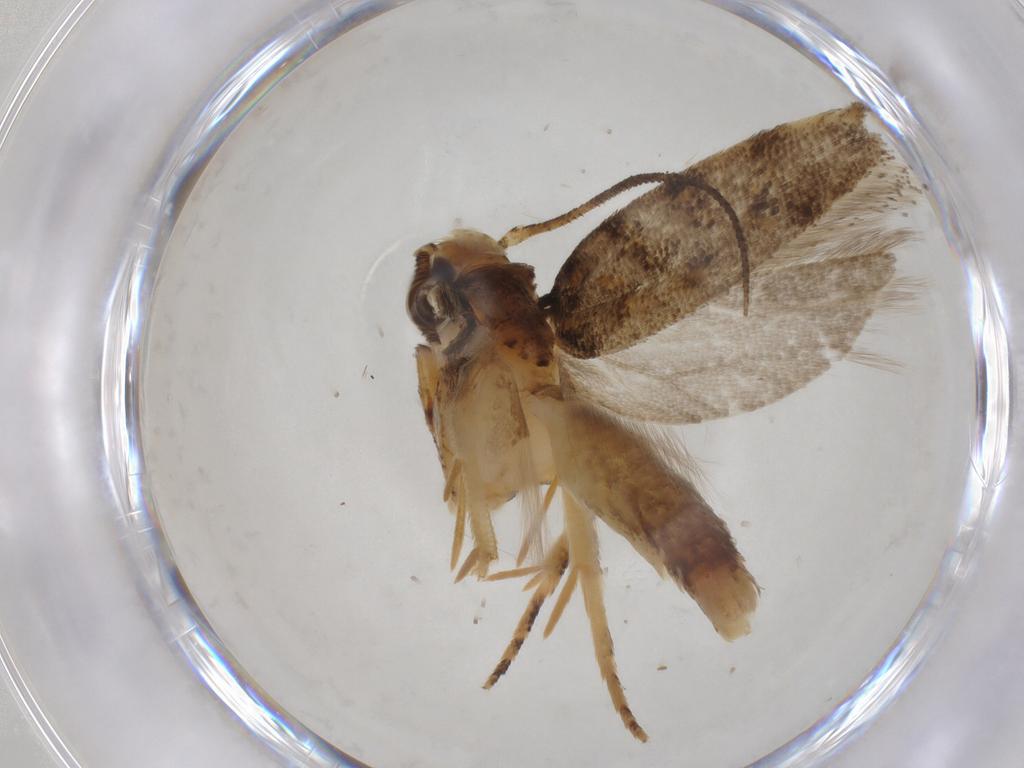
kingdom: Animalia
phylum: Arthropoda
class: Insecta
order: Lepidoptera
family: Gelechiidae
